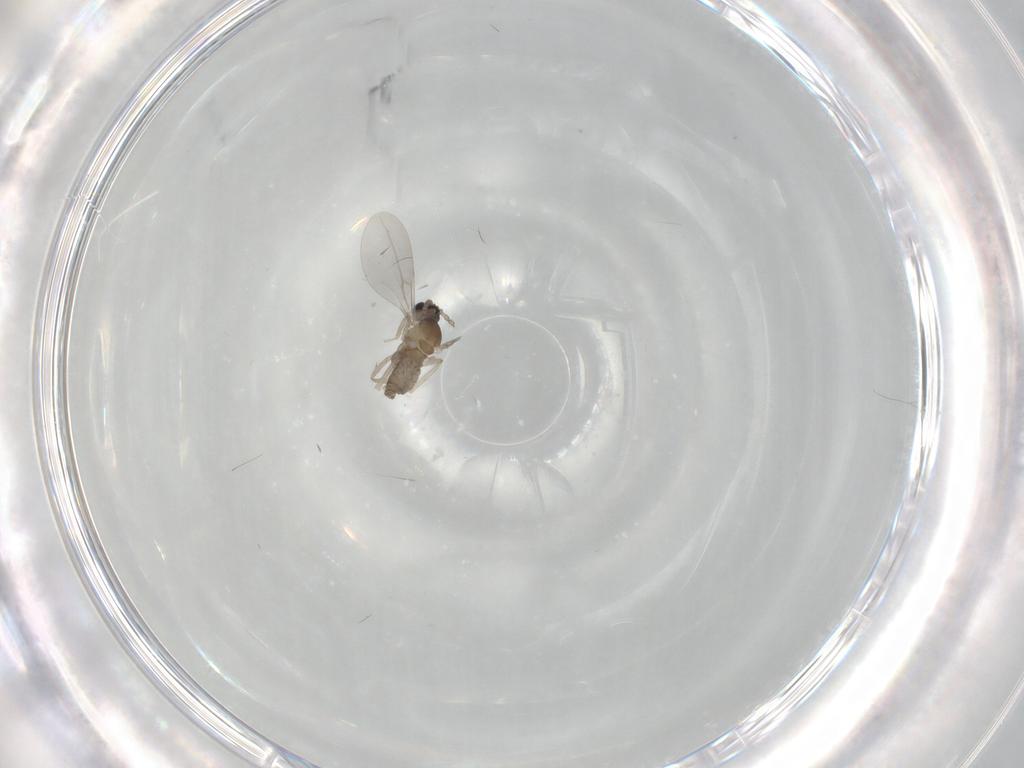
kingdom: Animalia
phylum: Arthropoda
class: Insecta
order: Diptera
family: Cecidomyiidae
